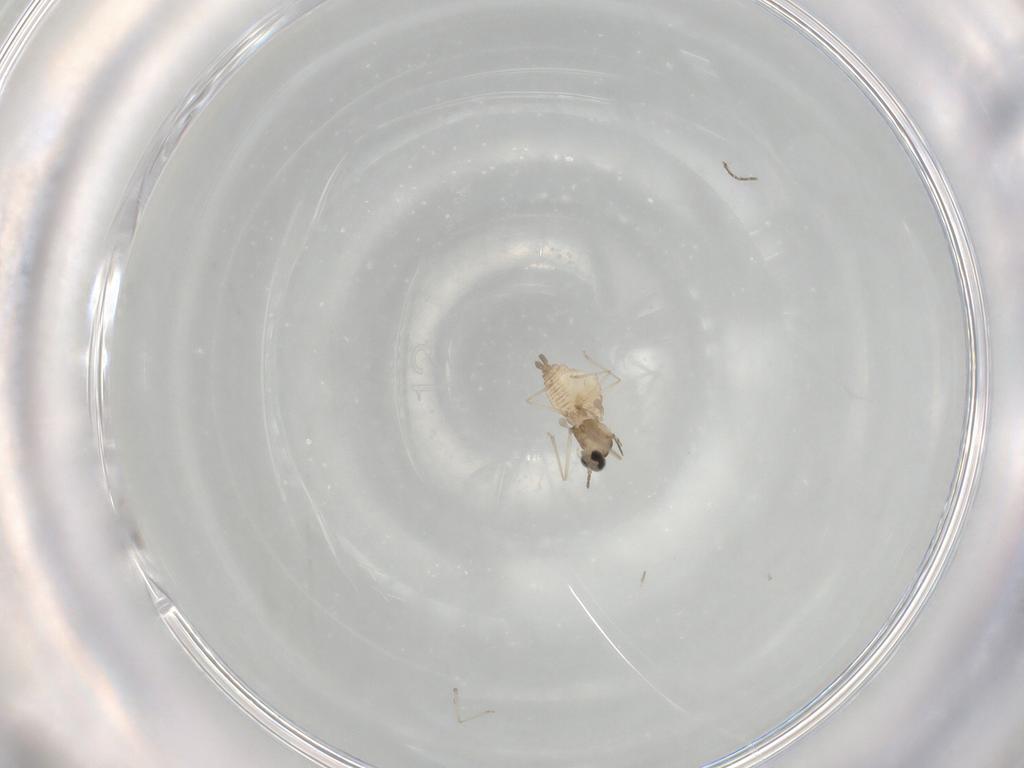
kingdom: Animalia
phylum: Arthropoda
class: Insecta
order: Diptera
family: Cecidomyiidae
